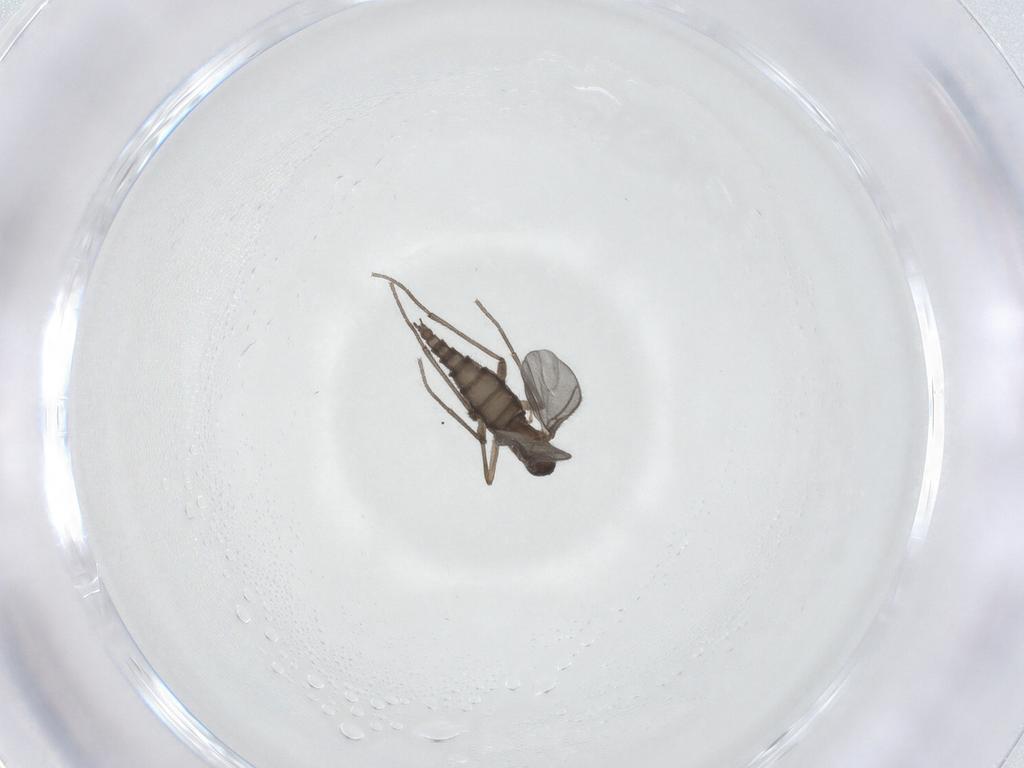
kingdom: Animalia
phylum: Arthropoda
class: Insecta
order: Diptera
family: Sciaridae
